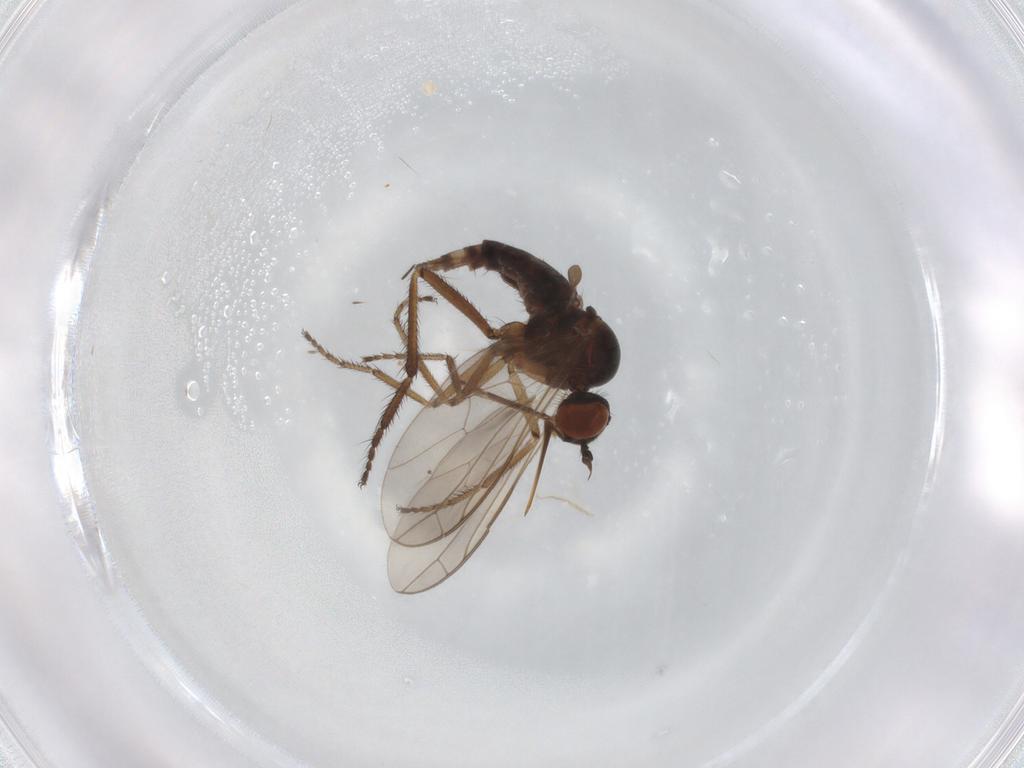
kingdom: Animalia
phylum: Arthropoda
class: Insecta
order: Diptera
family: Empididae
